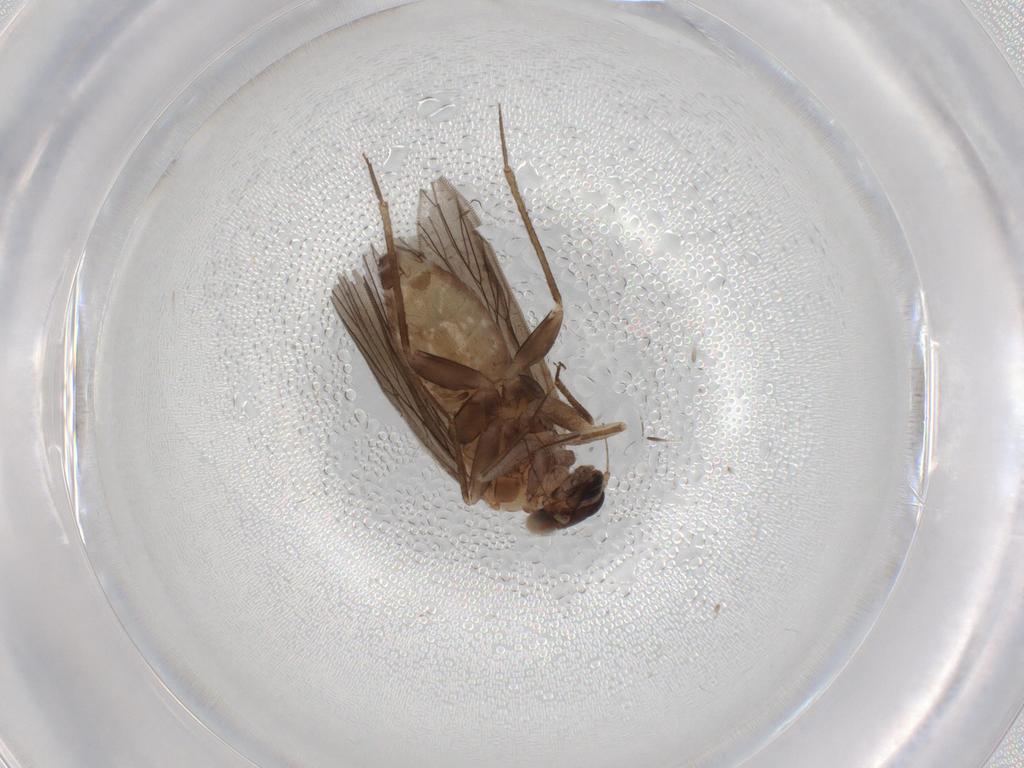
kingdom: Animalia
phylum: Arthropoda
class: Insecta
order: Psocodea
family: Lepidopsocidae
